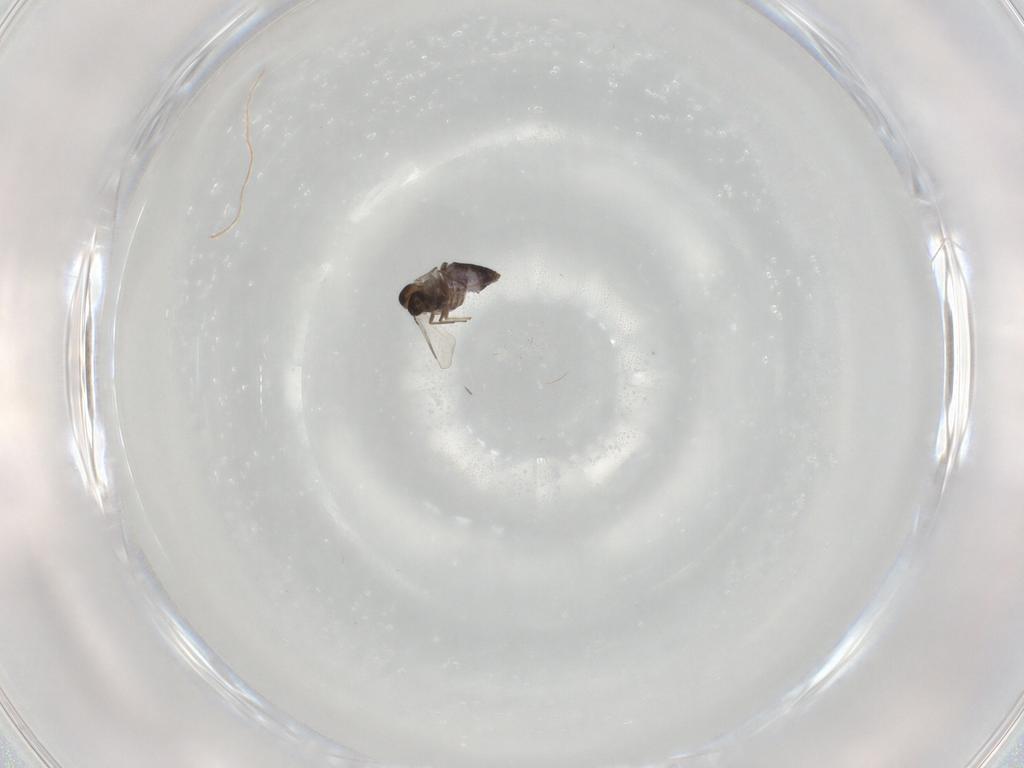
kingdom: Animalia
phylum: Arthropoda
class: Insecta
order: Diptera
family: Chironomidae
